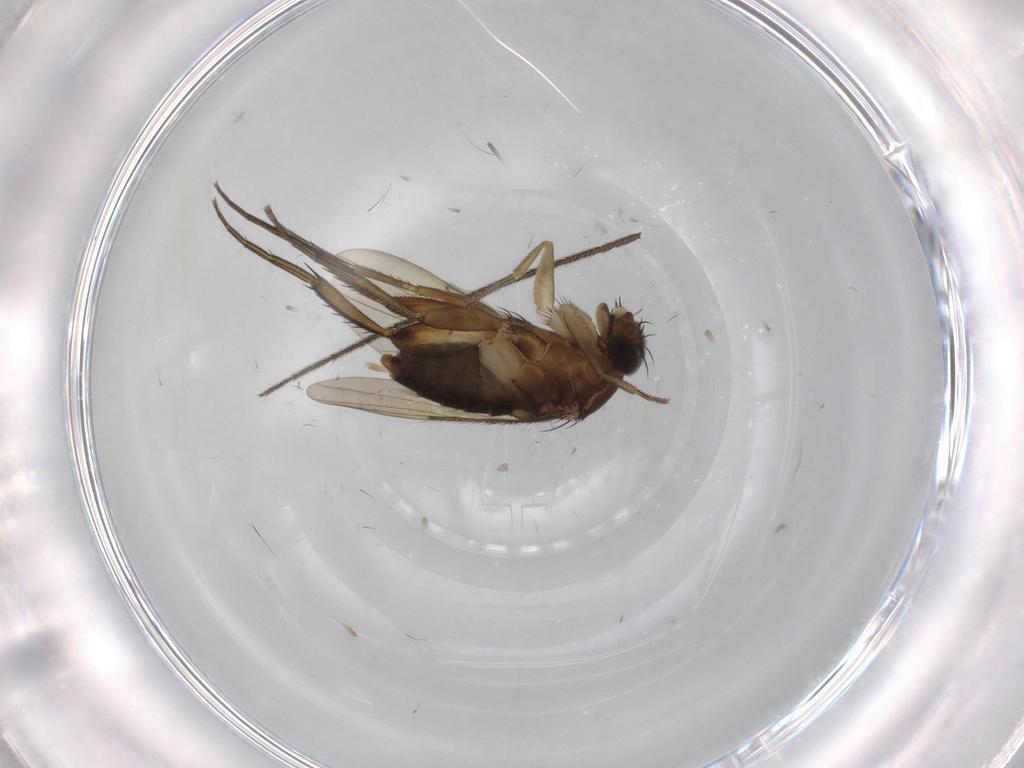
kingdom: Animalia
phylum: Arthropoda
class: Insecta
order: Diptera
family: Phoridae
